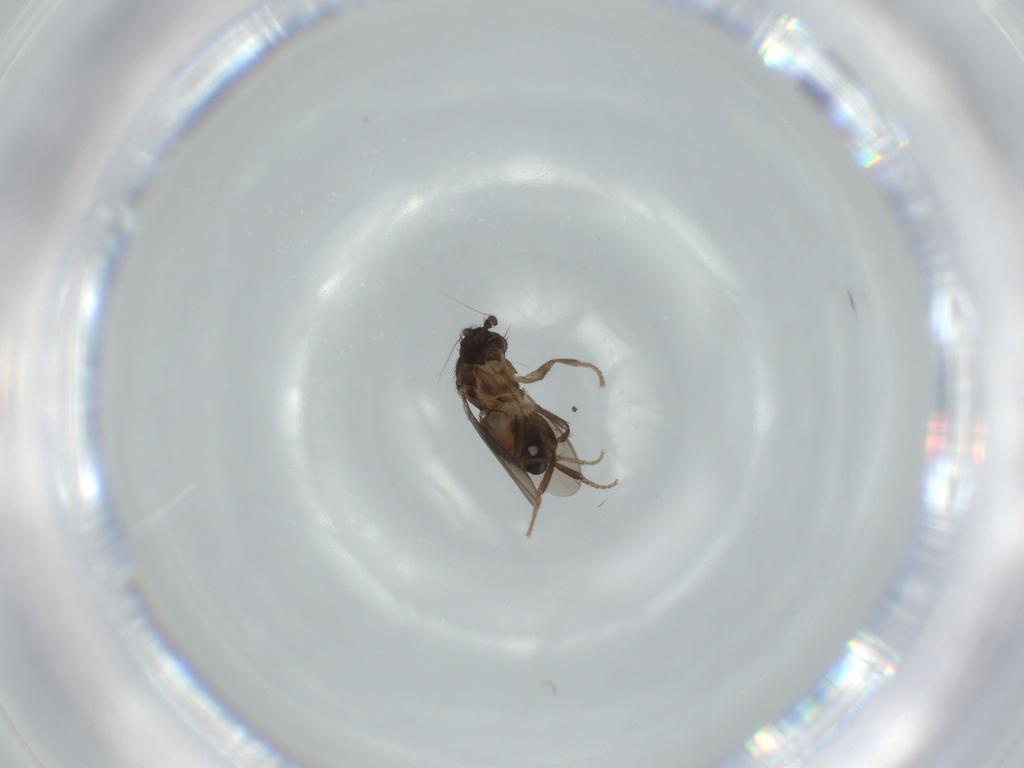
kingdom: Animalia
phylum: Arthropoda
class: Insecta
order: Diptera
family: Sphaeroceridae
